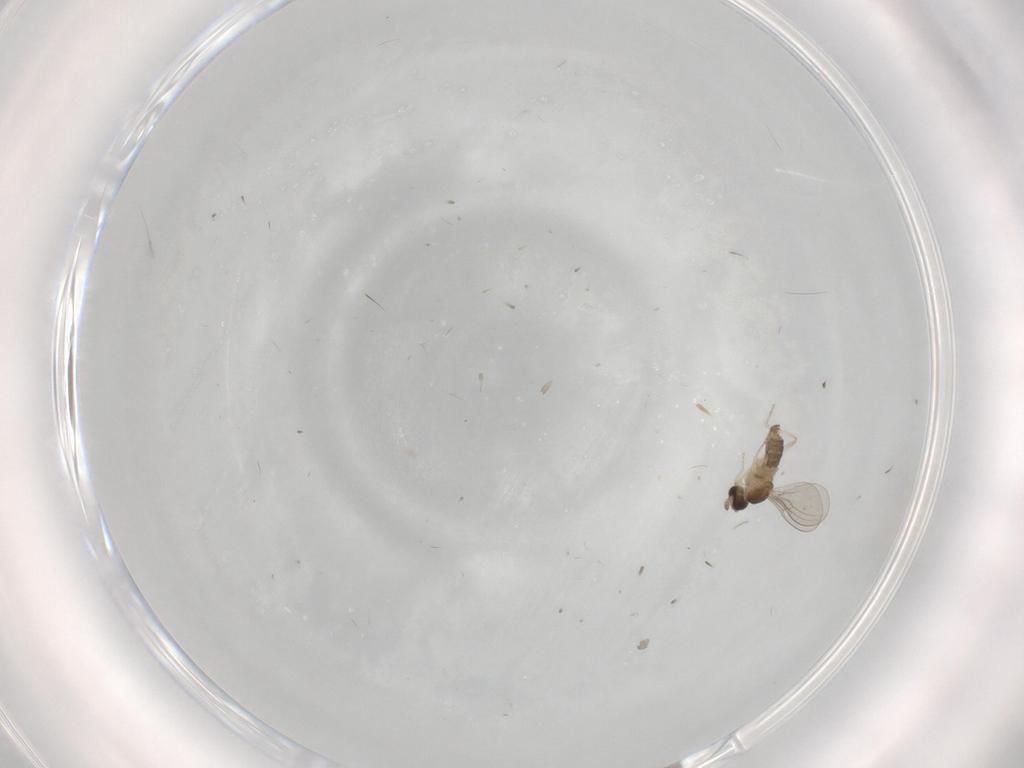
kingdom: Animalia
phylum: Arthropoda
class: Insecta
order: Diptera
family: Cecidomyiidae
